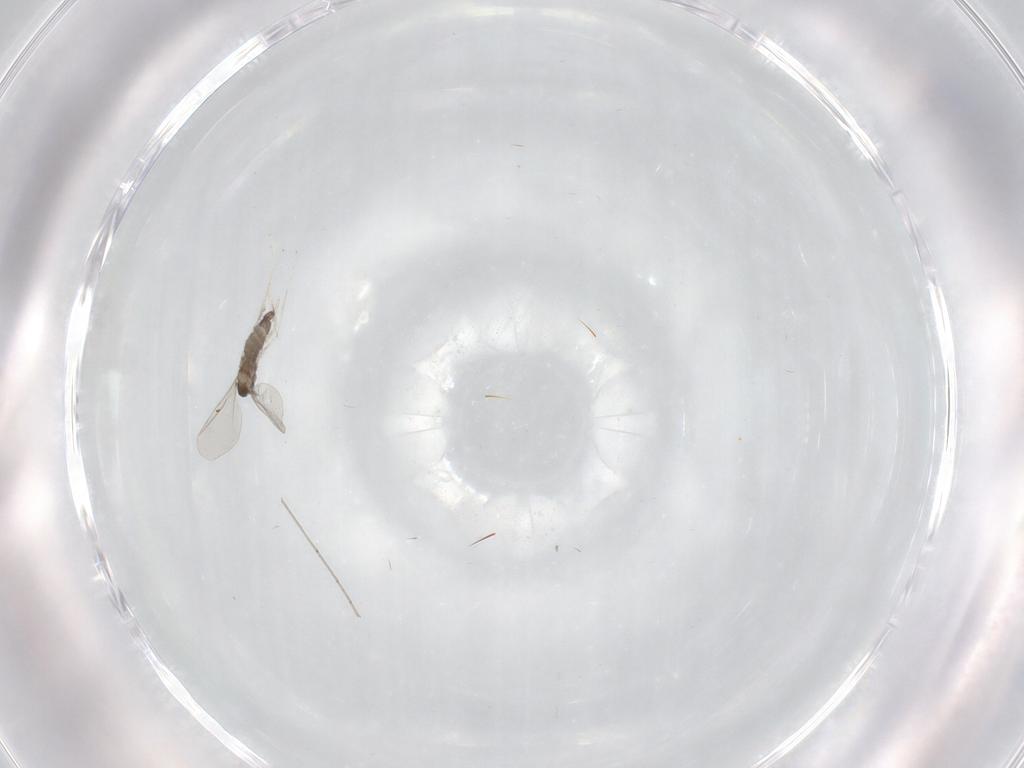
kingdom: Animalia
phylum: Arthropoda
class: Insecta
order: Diptera
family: Cecidomyiidae
